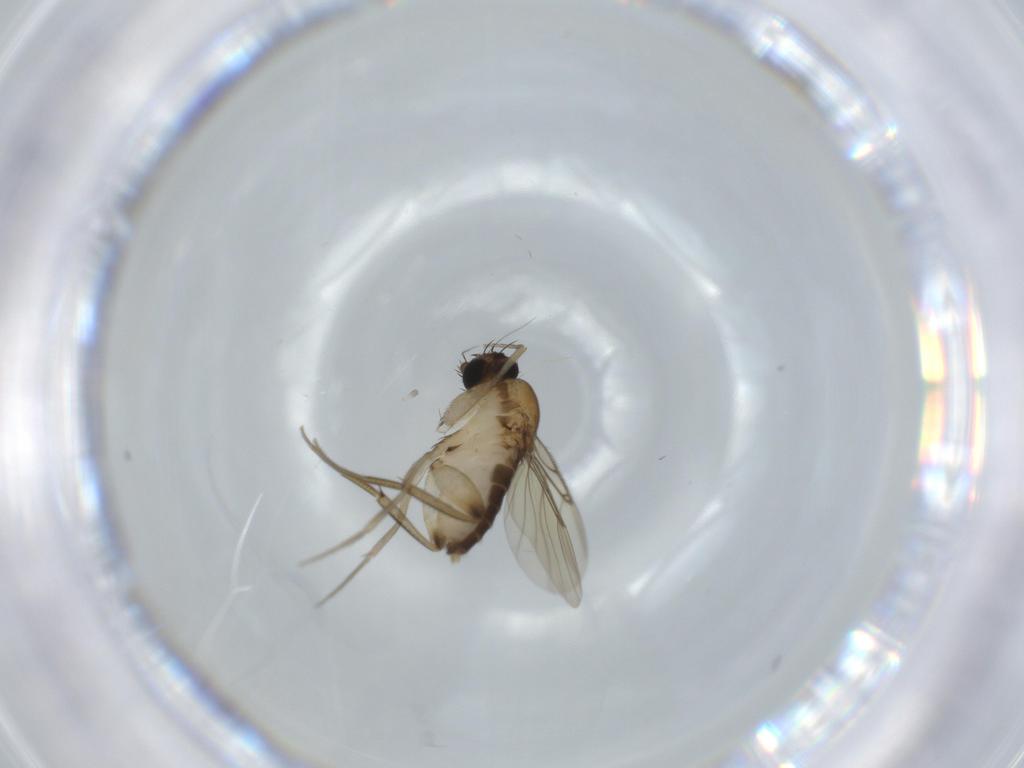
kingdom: Animalia
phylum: Arthropoda
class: Insecta
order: Diptera
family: Phoridae
